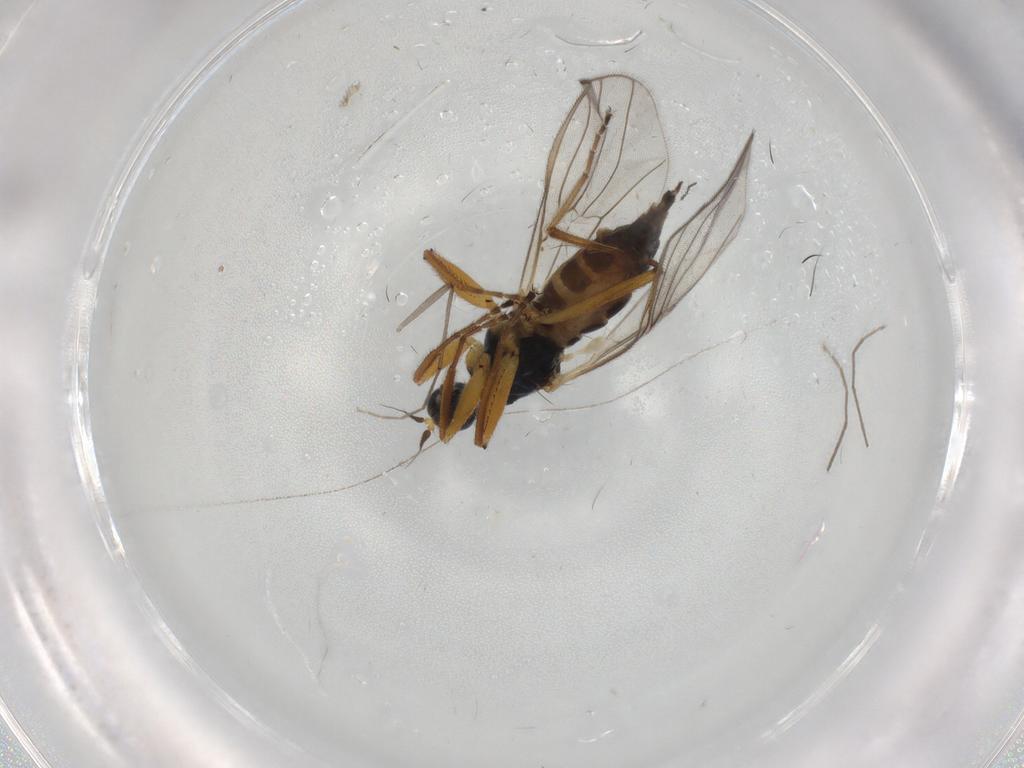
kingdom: Animalia
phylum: Arthropoda
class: Insecta
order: Diptera
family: Hybotidae
